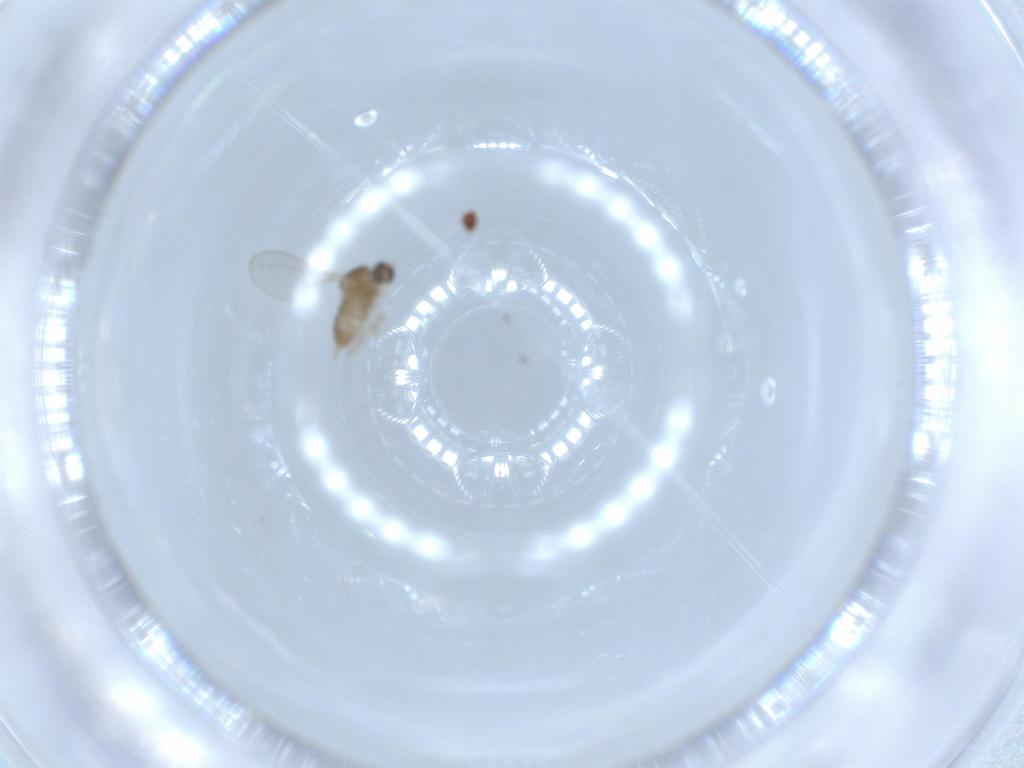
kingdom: Animalia
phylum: Arthropoda
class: Insecta
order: Diptera
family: Cecidomyiidae
